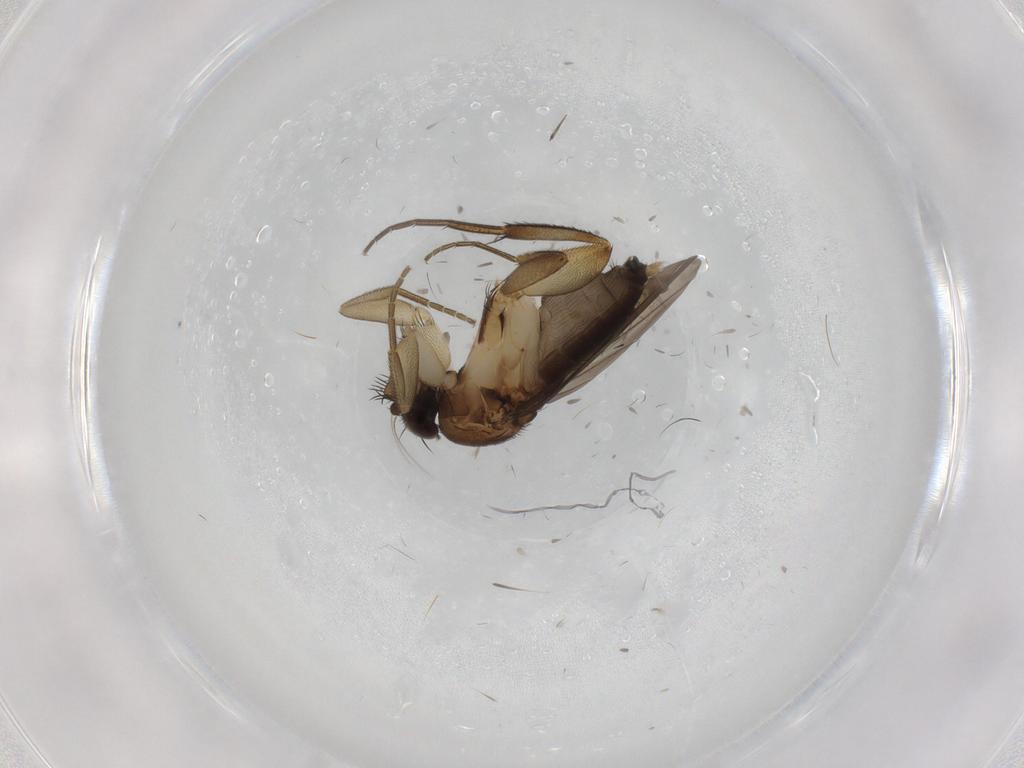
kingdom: Animalia
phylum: Arthropoda
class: Insecta
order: Diptera
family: Phoridae
